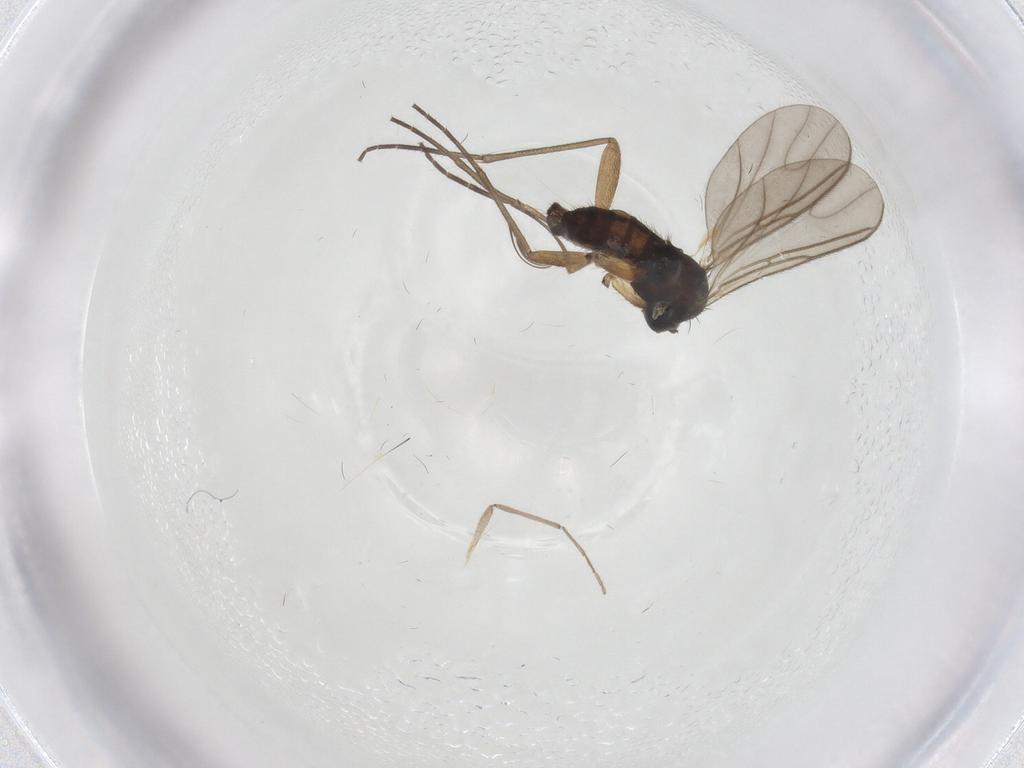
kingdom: Animalia
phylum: Arthropoda
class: Insecta
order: Diptera
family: Sciaridae
